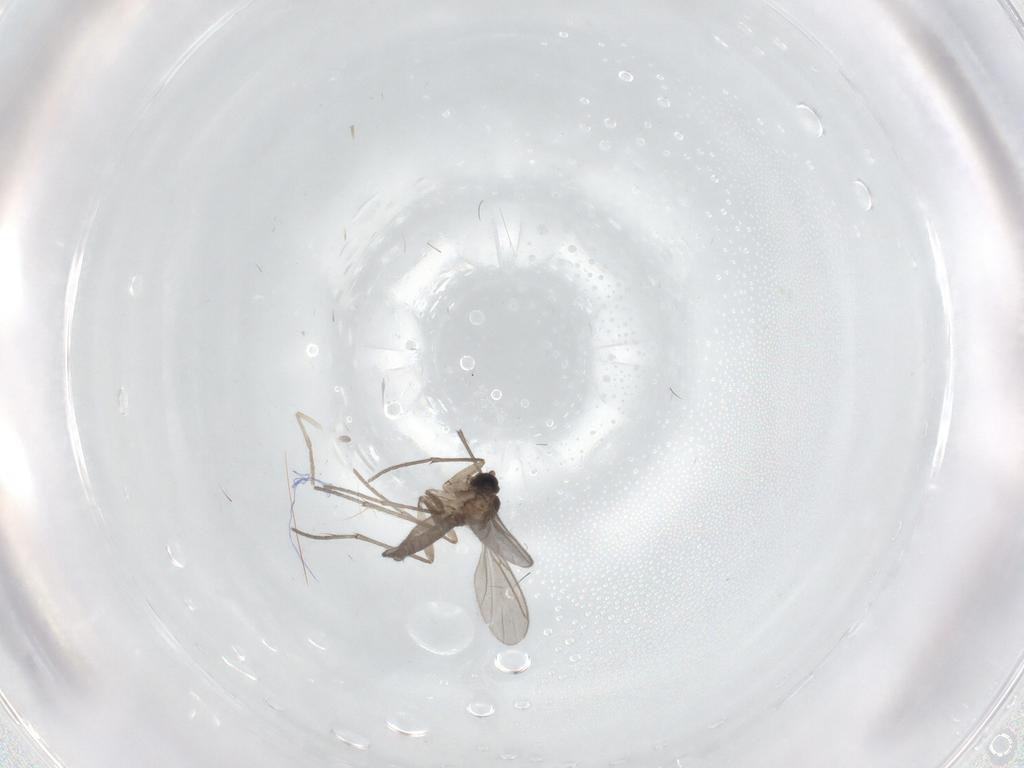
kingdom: Animalia
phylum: Arthropoda
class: Insecta
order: Diptera
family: Sciaridae
